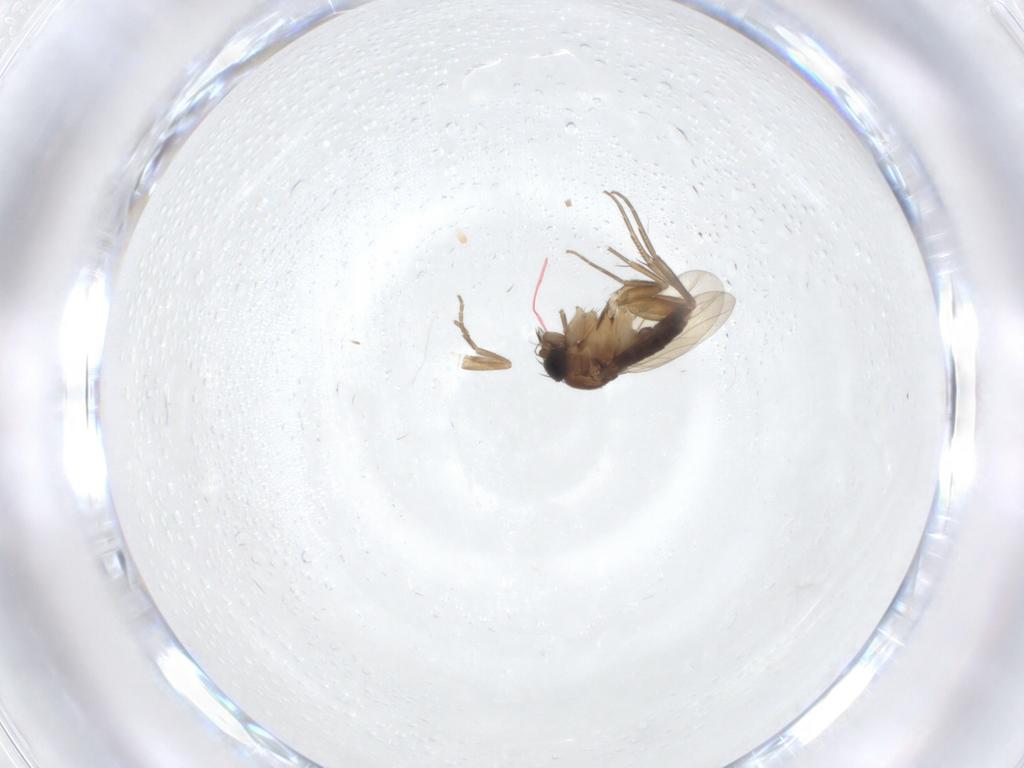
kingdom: Animalia
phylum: Arthropoda
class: Insecta
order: Diptera
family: Phoridae
